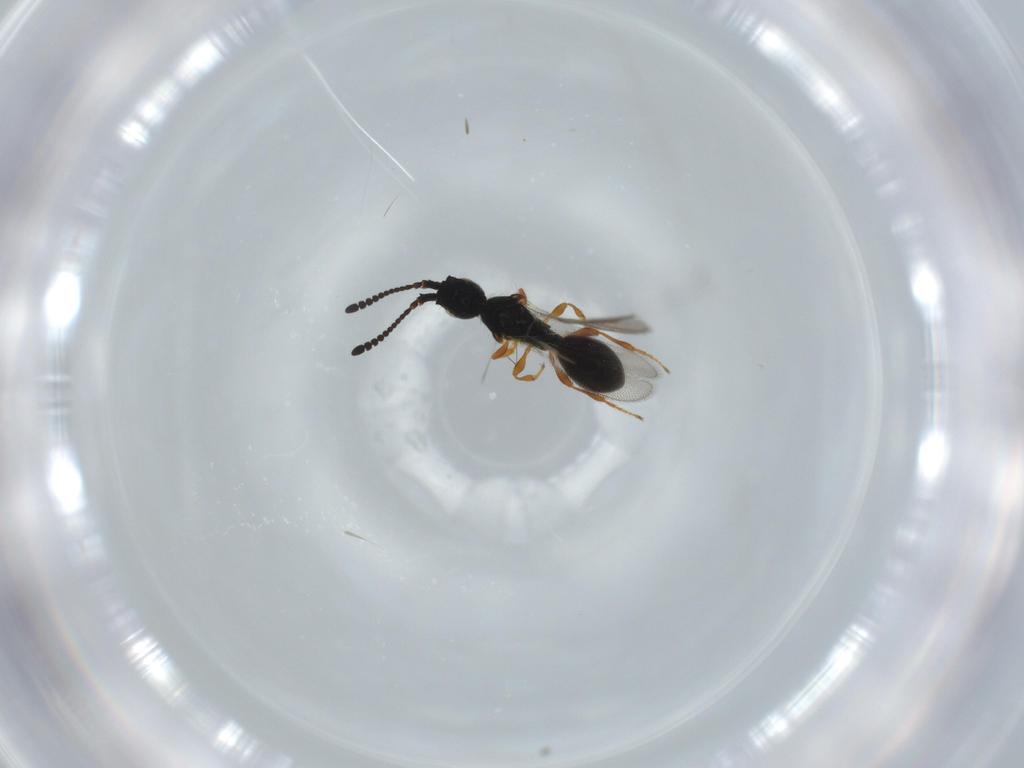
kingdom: Animalia
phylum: Arthropoda
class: Insecta
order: Hymenoptera
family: Diapriidae
